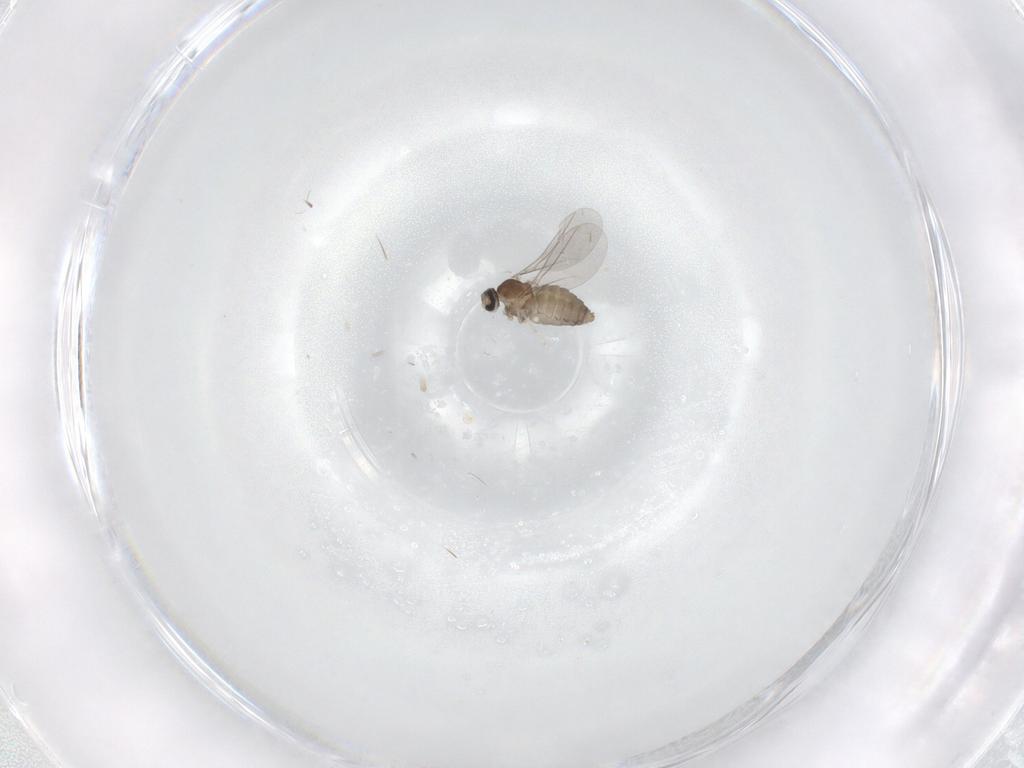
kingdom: Animalia
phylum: Arthropoda
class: Insecta
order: Diptera
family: Cecidomyiidae
